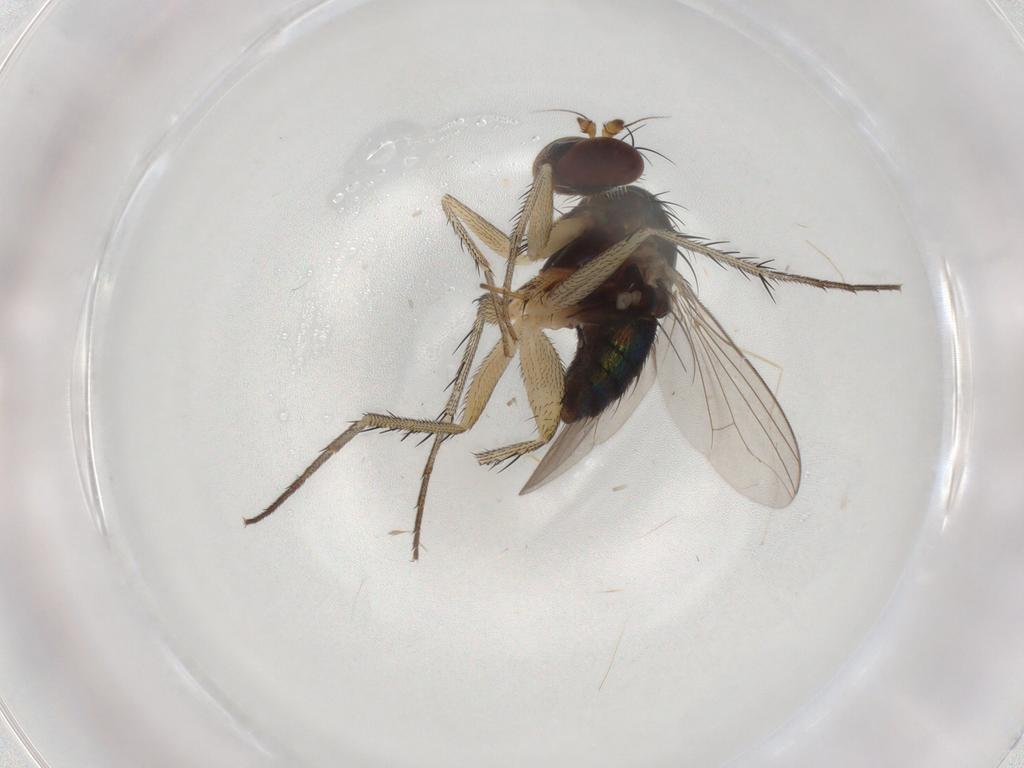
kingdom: Animalia
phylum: Arthropoda
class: Insecta
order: Diptera
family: Dolichopodidae
